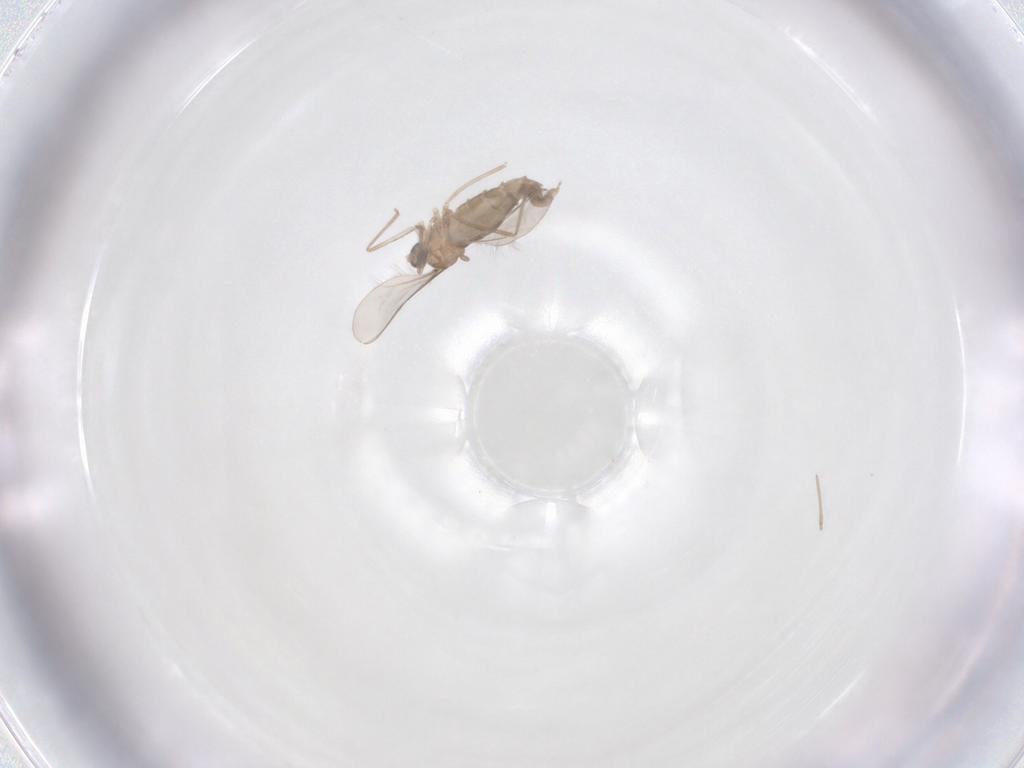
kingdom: Animalia
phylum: Arthropoda
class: Insecta
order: Diptera
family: Cecidomyiidae
